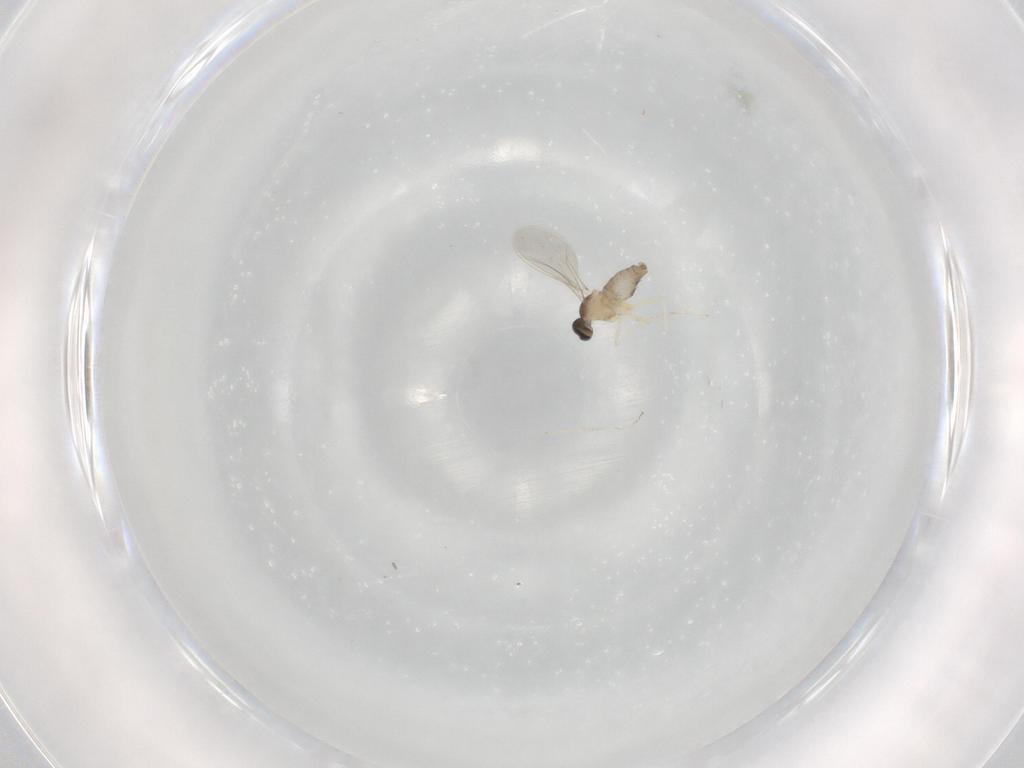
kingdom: Animalia
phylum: Arthropoda
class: Insecta
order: Diptera
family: Cecidomyiidae
